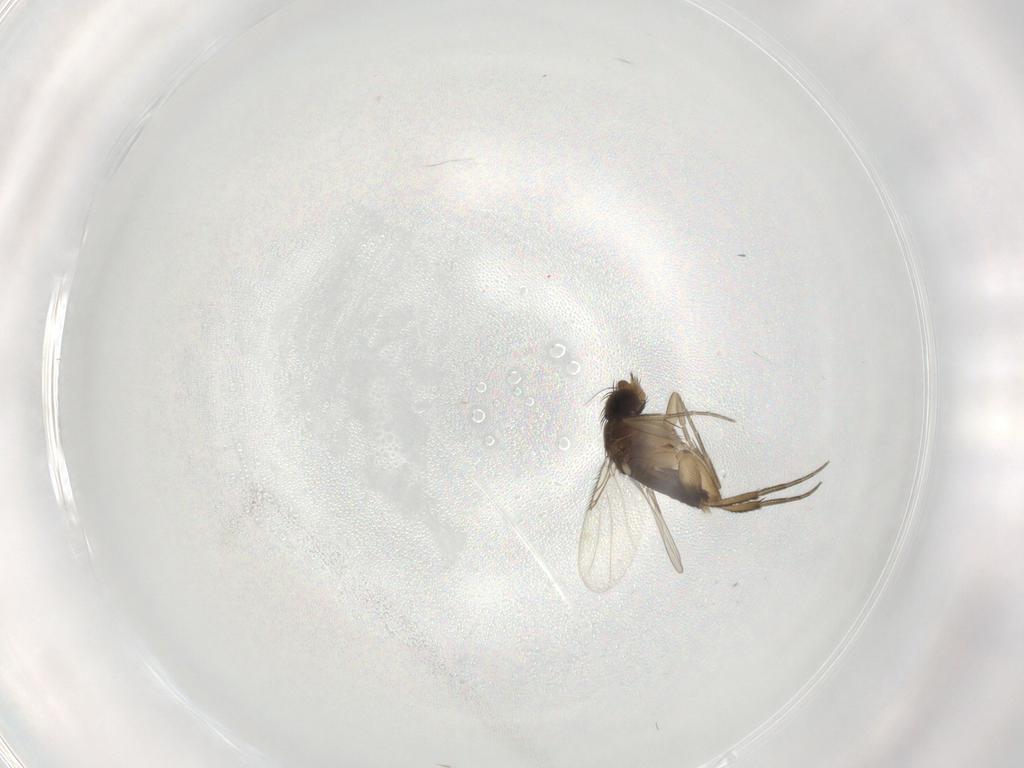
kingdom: Animalia
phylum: Arthropoda
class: Insecta
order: Diptera
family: Phoridae
